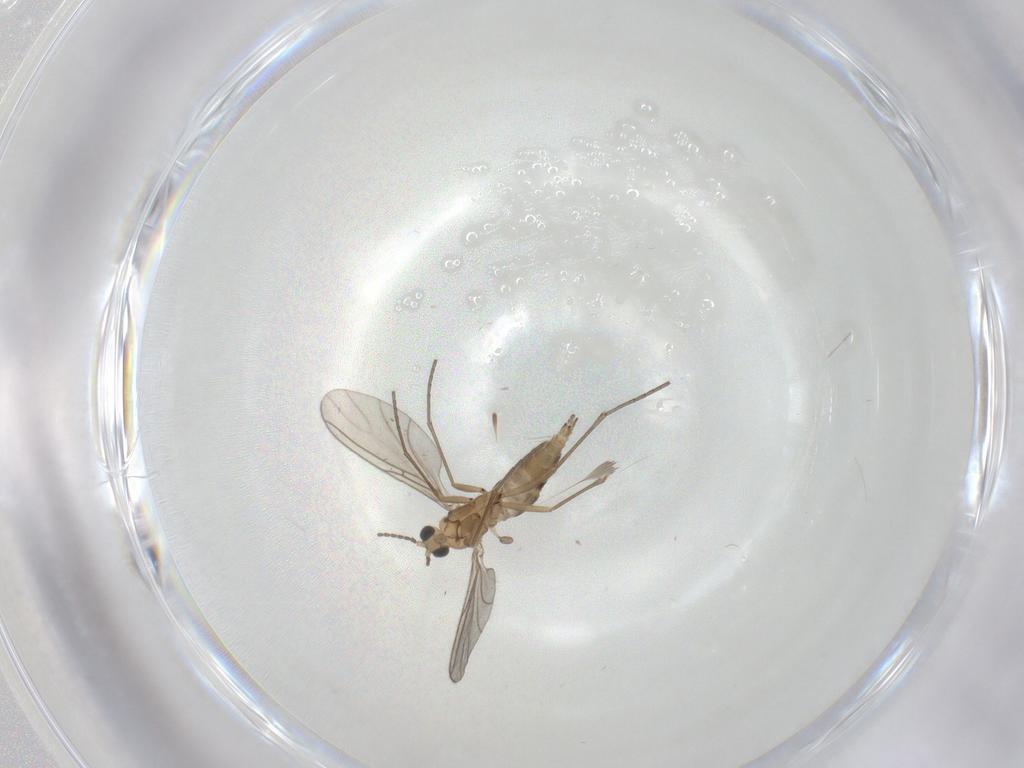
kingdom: Animalia
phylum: Arthropoda
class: Insecta
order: Diptera
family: Sciaridae
